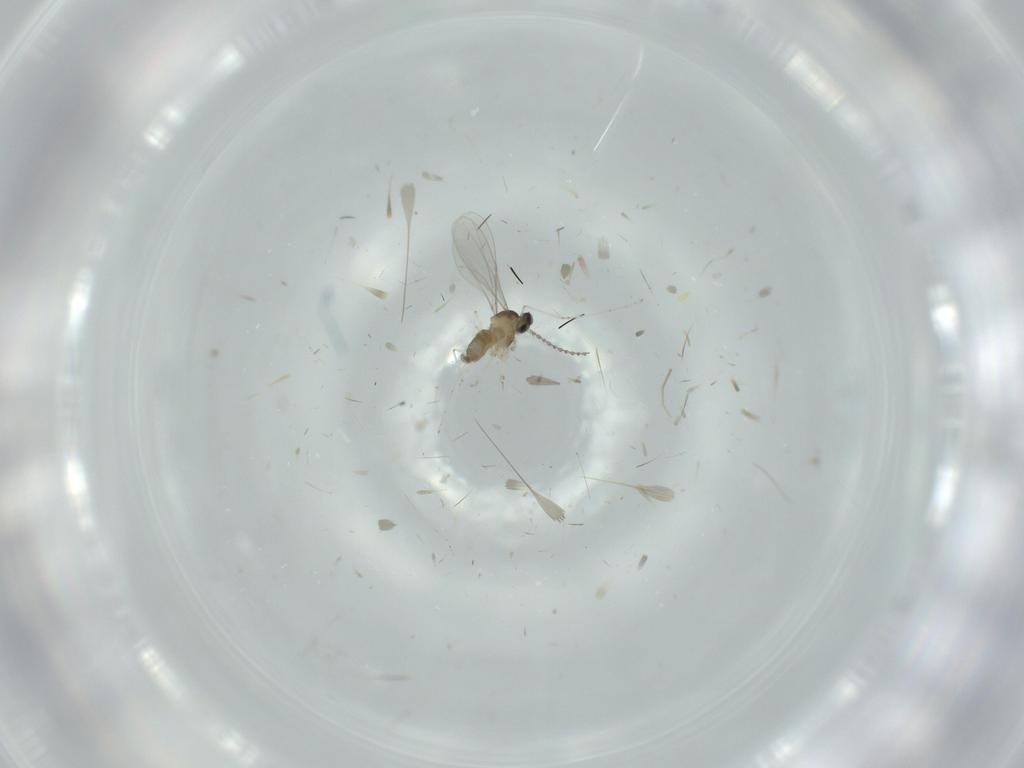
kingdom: Animalia
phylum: Arthropoda
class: Insecta
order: Diptera
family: Cecidomyiidae
